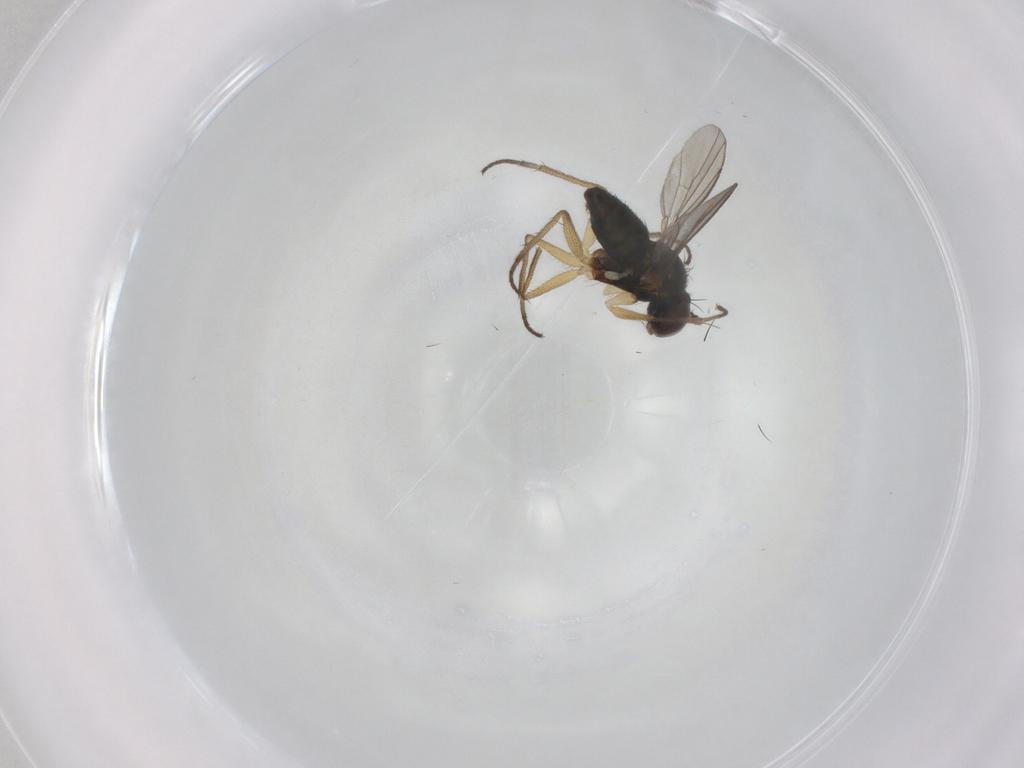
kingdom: Animalia
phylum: Arthropoda
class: Insecta
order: Diptera
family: Dolichopodidae
